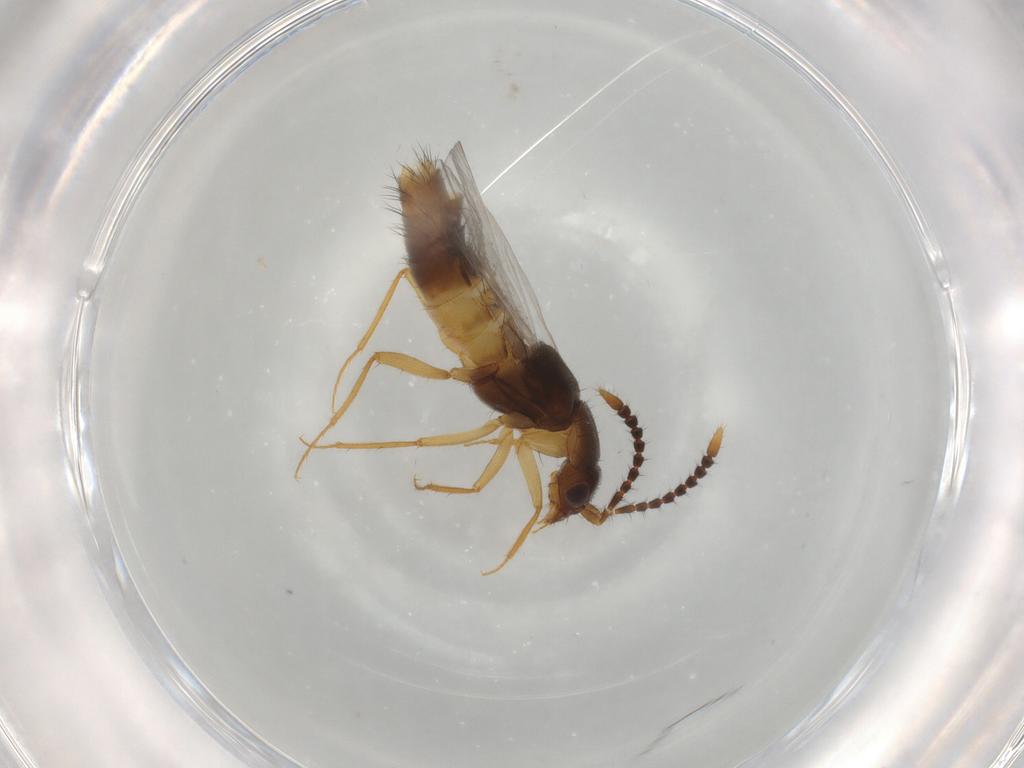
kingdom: Animalia
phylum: Arthropoda
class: Insecta
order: Coleoptera
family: Staphylinidae
